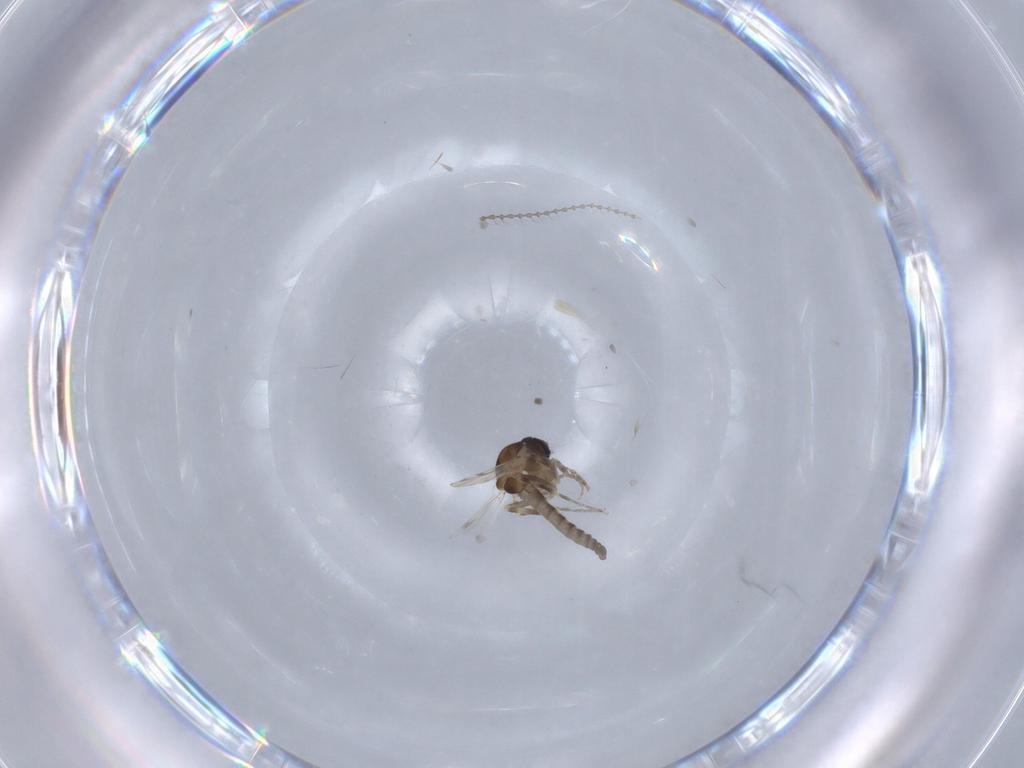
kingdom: Animalia
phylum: Arthropoda
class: Insecta
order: Diptera
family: Ceratopogonidae
